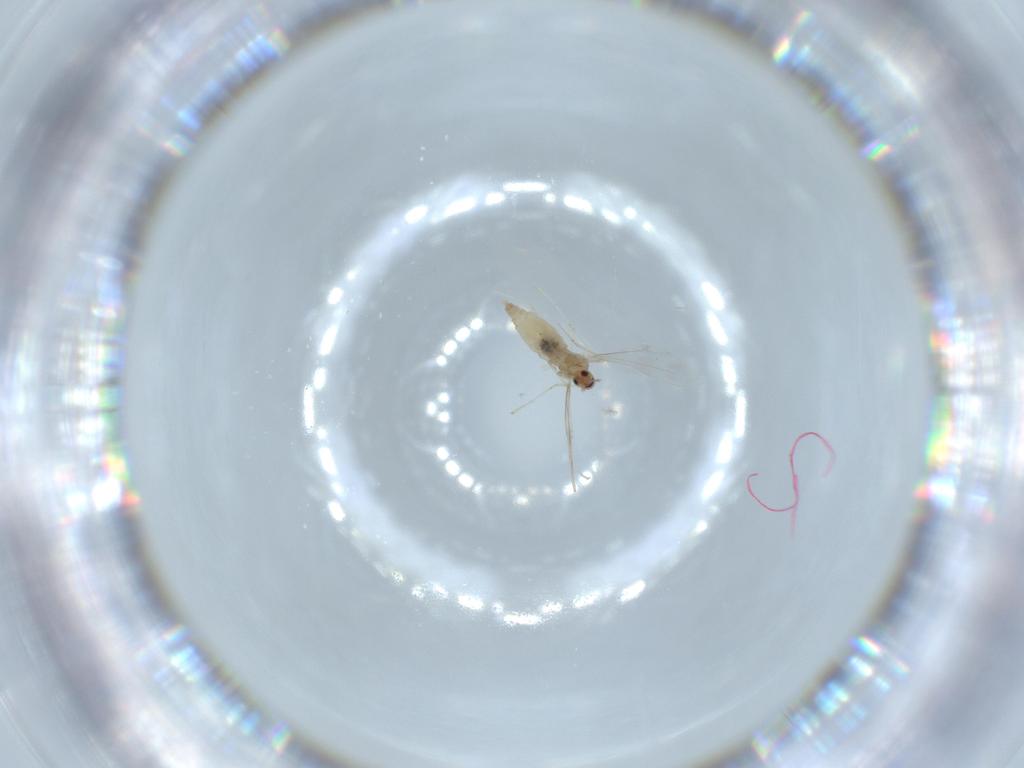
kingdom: Animalia
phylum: Arthropoda
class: Insecta
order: Diptera
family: Cecidomyiidae
